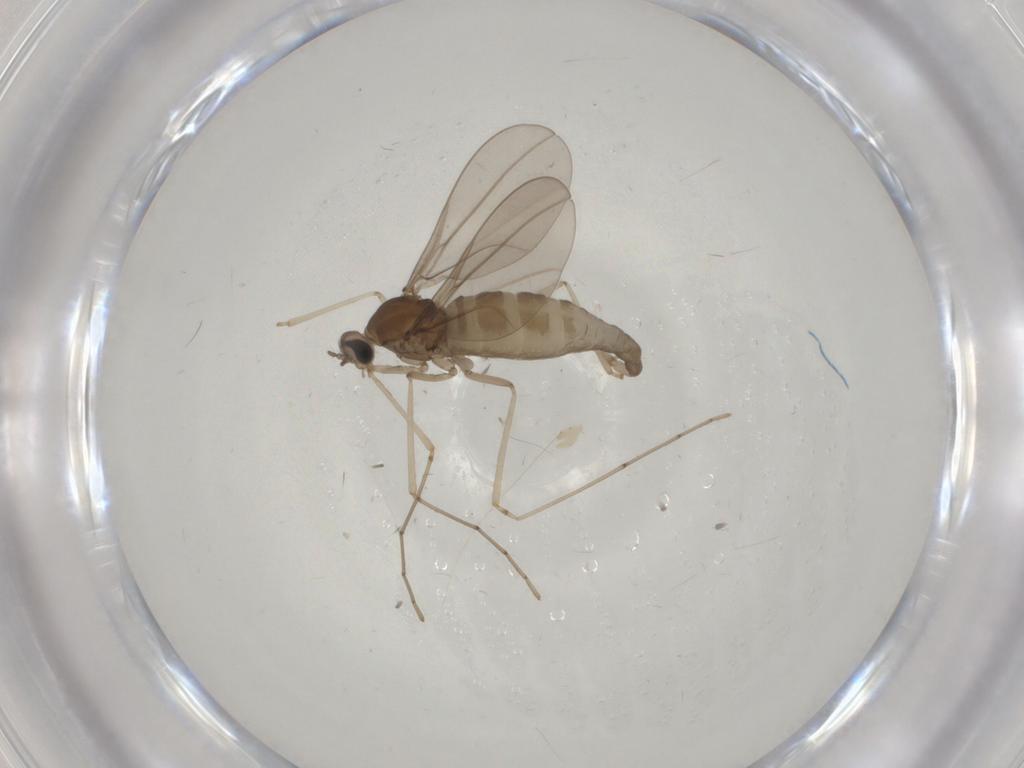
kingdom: Animalia
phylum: Arthropoda
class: Insecta
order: Diptera
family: Cecidomyiidae
